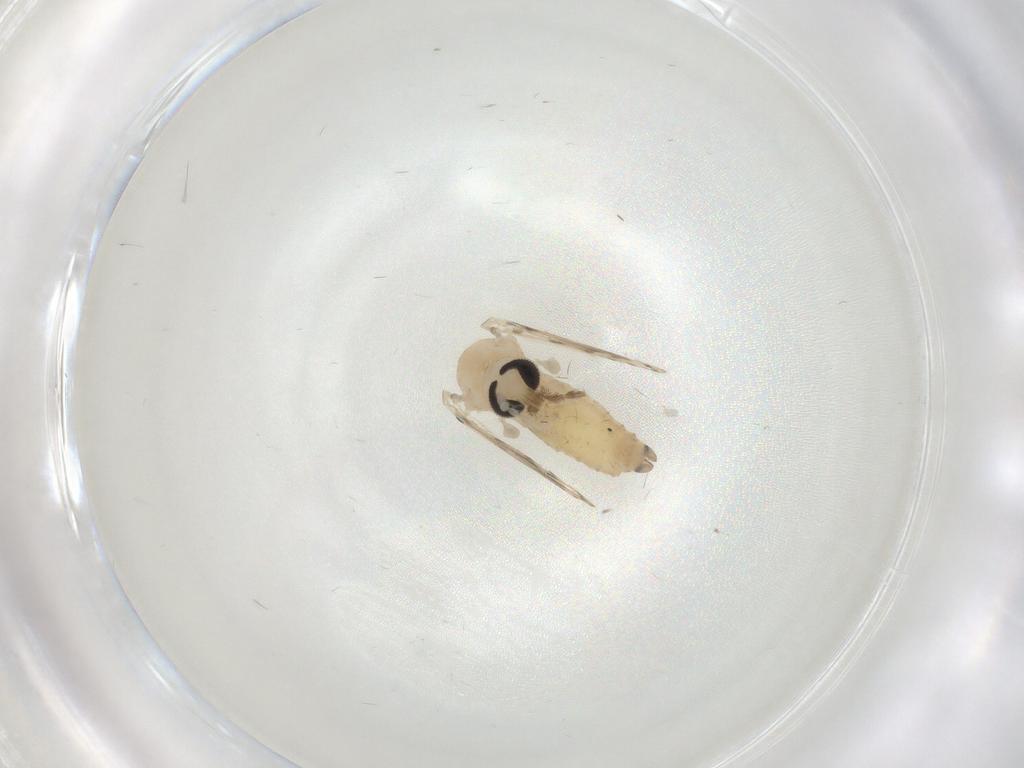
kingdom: Animalia
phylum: Arthropoda
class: Insecta
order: Diptera
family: Psychodidae
